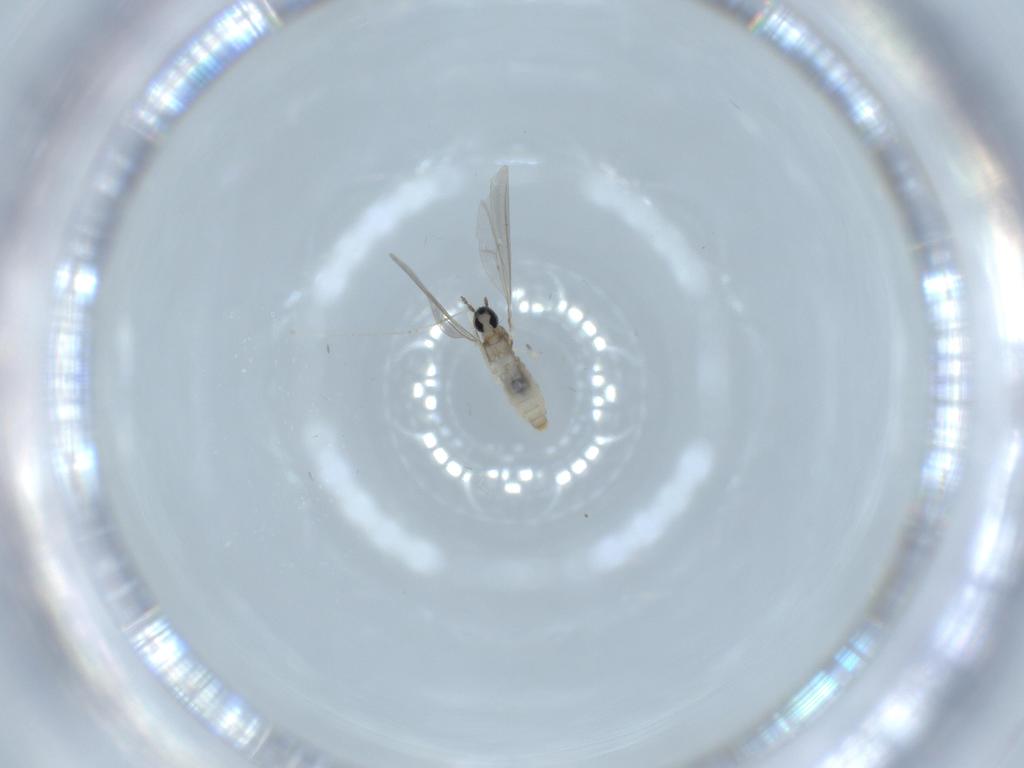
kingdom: Animalia
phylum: Arthropoda
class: Insecta
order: Diptera
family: Cecidomyiidae
